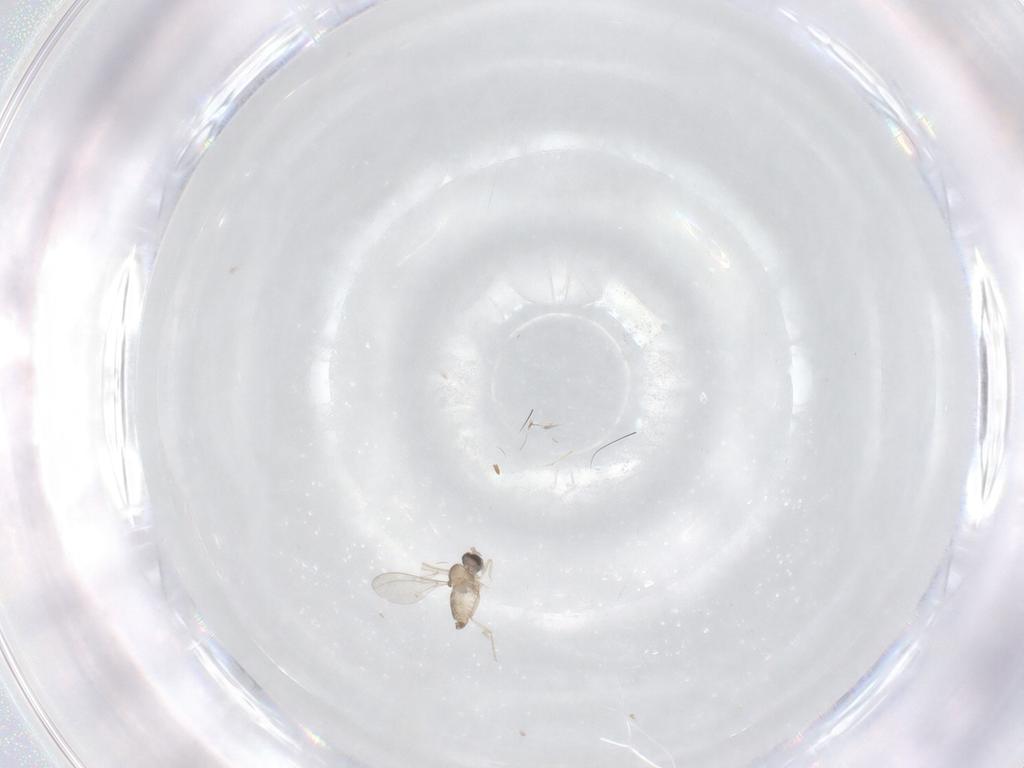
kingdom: Animalia
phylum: Arthropoda
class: Insecta
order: Diptera
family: Cecidomyiidae
